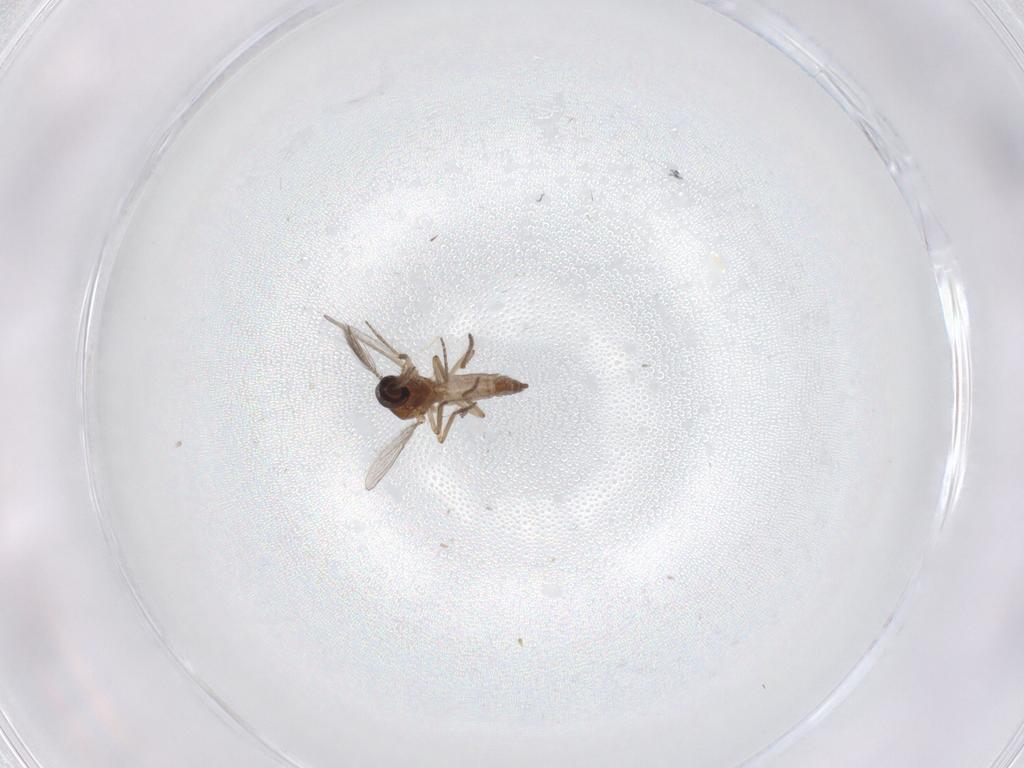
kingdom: Animalia
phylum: Arthropoda
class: Insecta
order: Diptera
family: Ceratopogonidae
